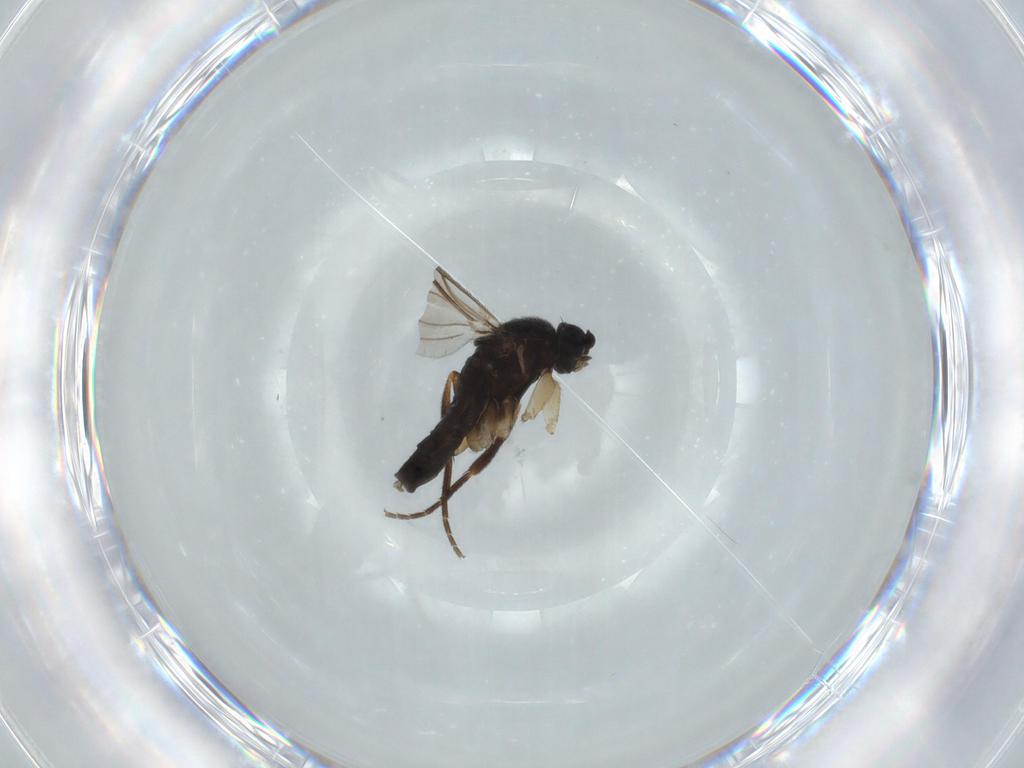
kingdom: Animalia
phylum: Arthropoda
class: Insecta
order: Diptera
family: Phoridae
